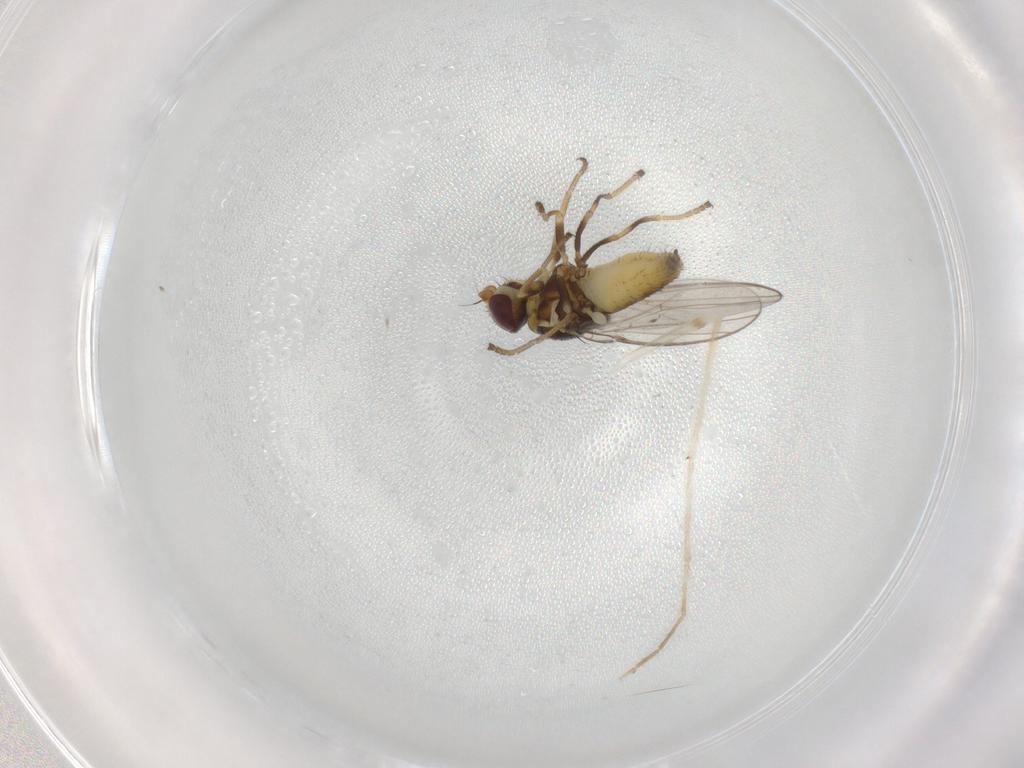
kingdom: Animalia
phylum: Arthropoda
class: Insecta
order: Diptera
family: Chloropidae
